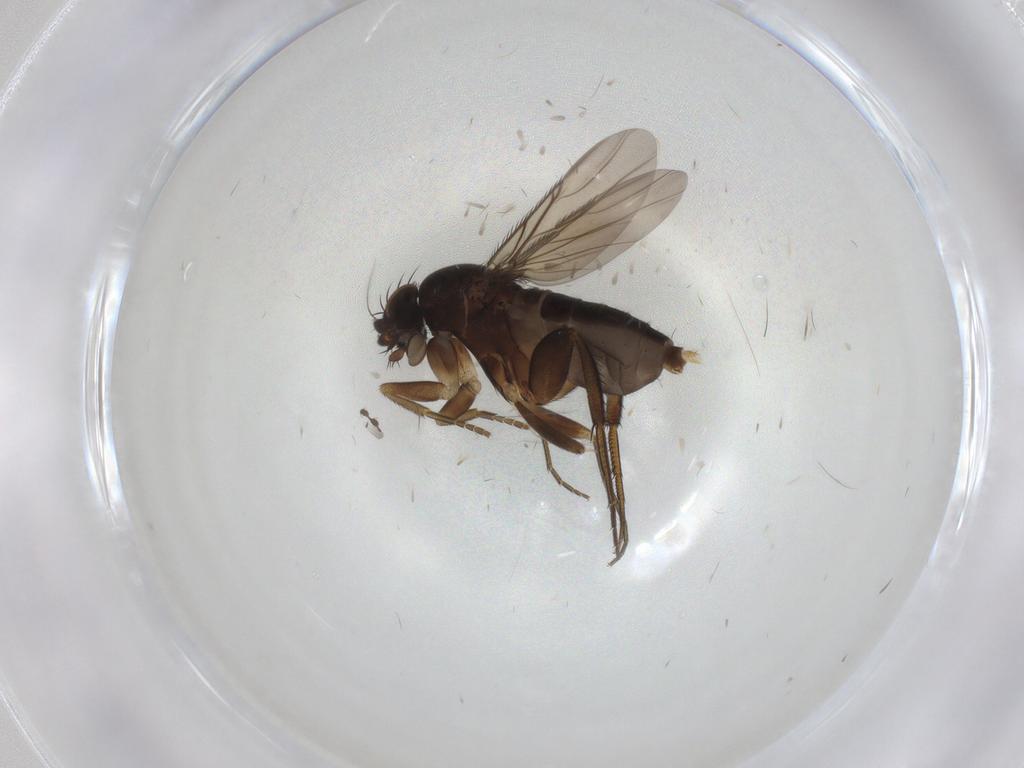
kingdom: Animalia
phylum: Arthropoda
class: Insecta
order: Diptera
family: Phoridae
